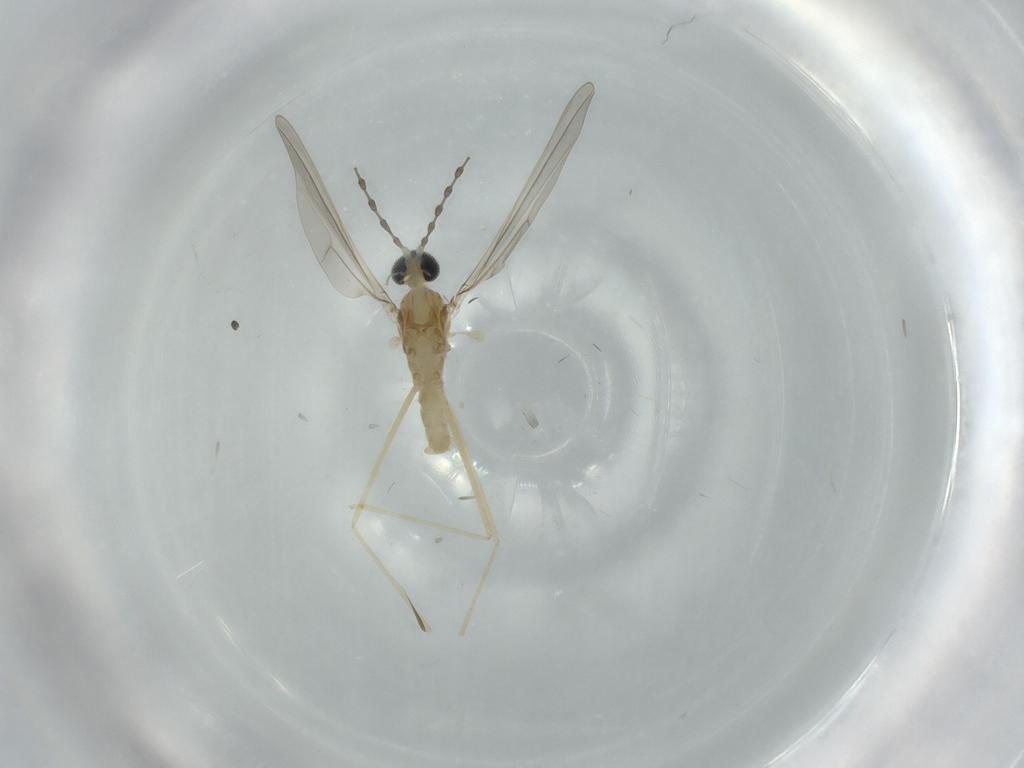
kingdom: Animalia
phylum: Arthropoda
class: Insecta
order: Diptera
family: Cecidomyiidae
